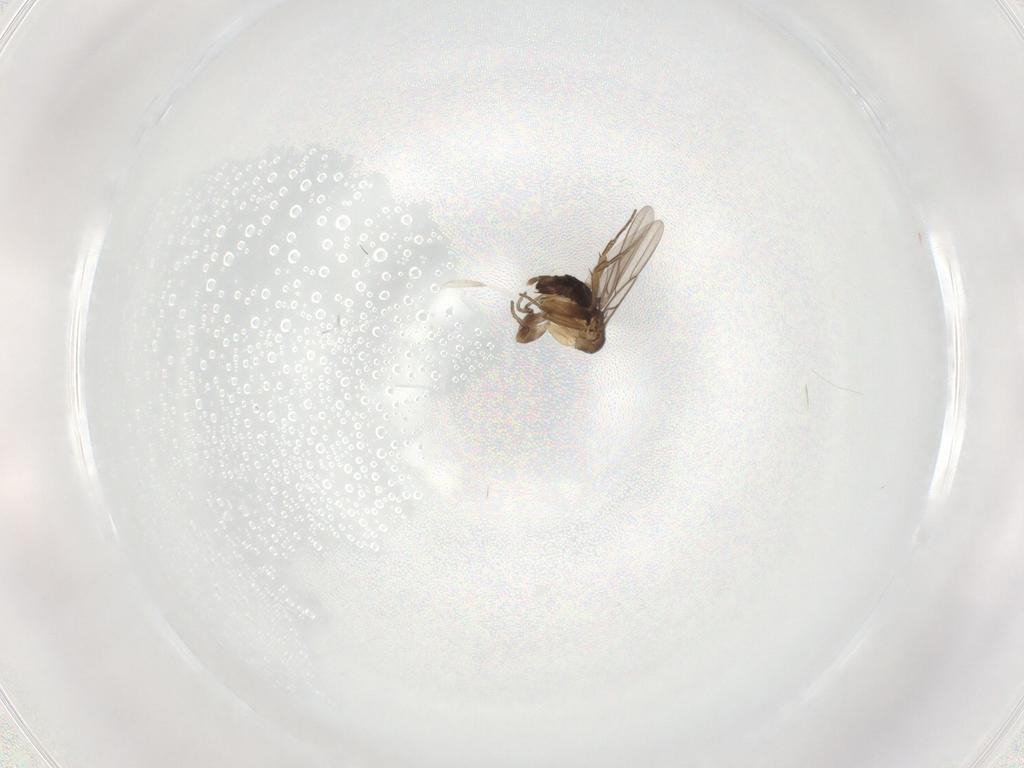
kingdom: Animalia
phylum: Arthropoda
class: Insecta
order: Diptera
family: Phoridae
